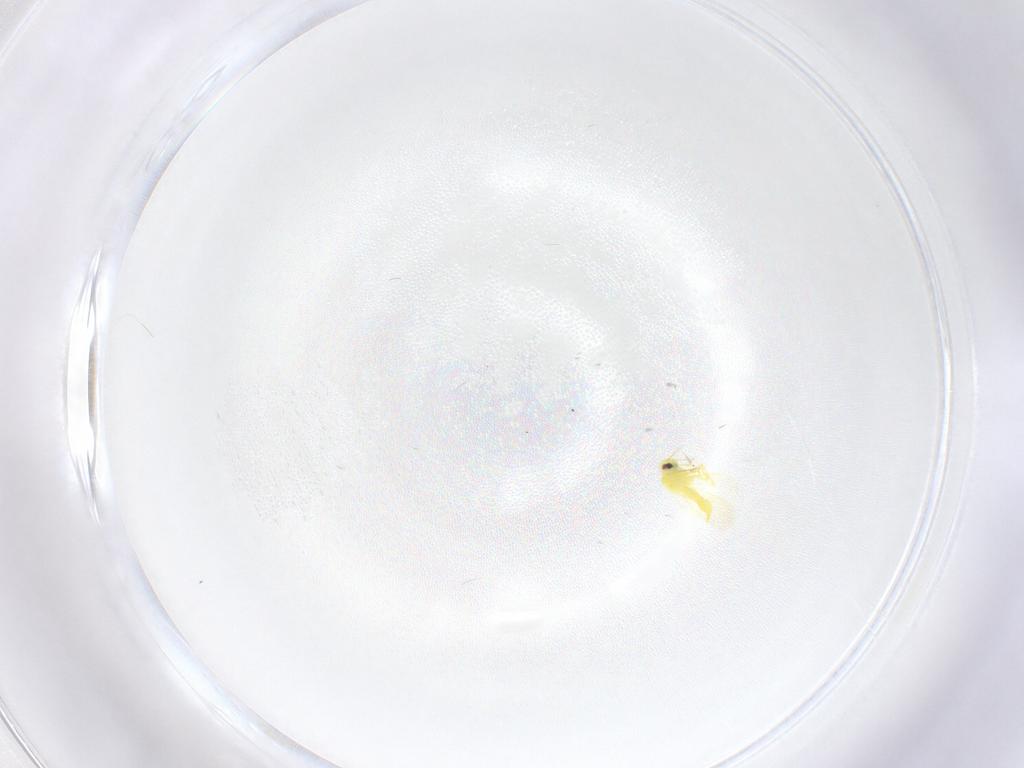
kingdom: Animalia
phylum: Arthropoda
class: Insecta
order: Hemiptera
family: Aleyrodidae
